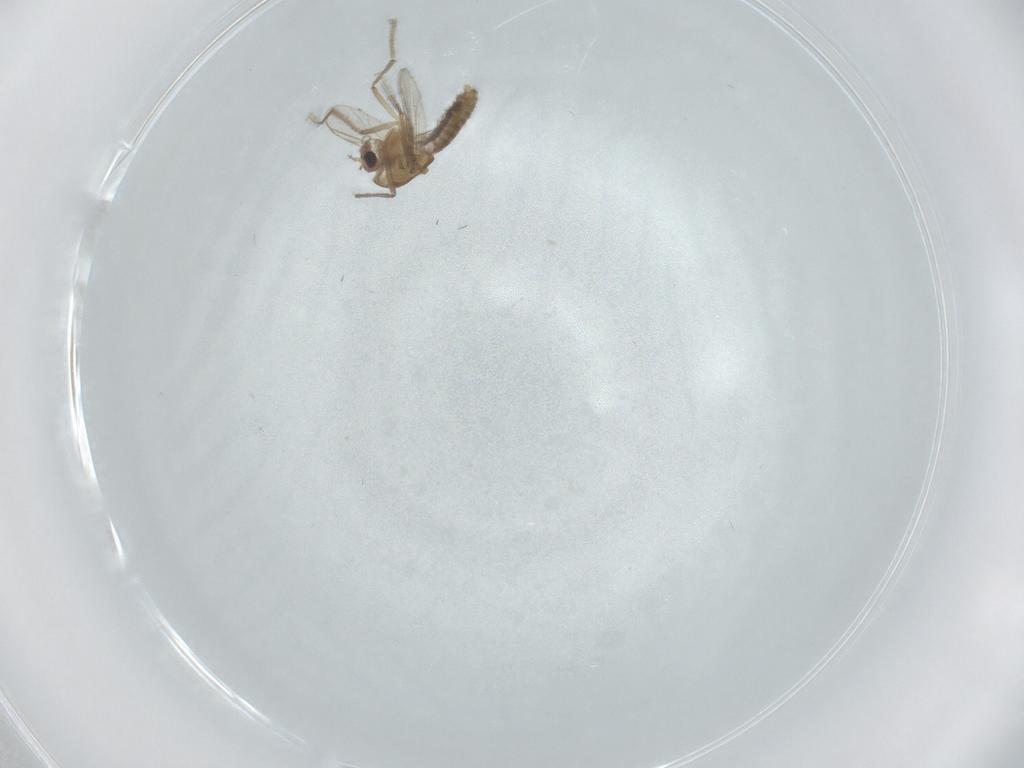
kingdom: Animalia
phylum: Arthropoda
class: Insecta
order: Diptera
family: Chironomidae
